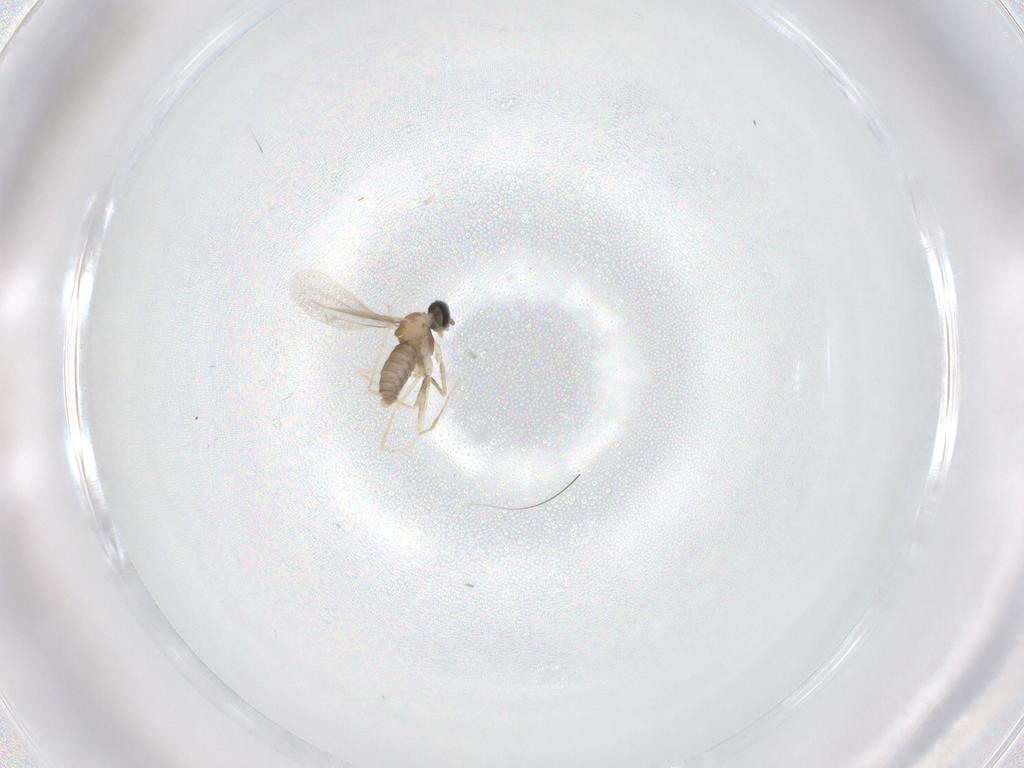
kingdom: Animalia
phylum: Arthropoda
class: Insecta
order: Diptera
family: Cecidomyiidae
